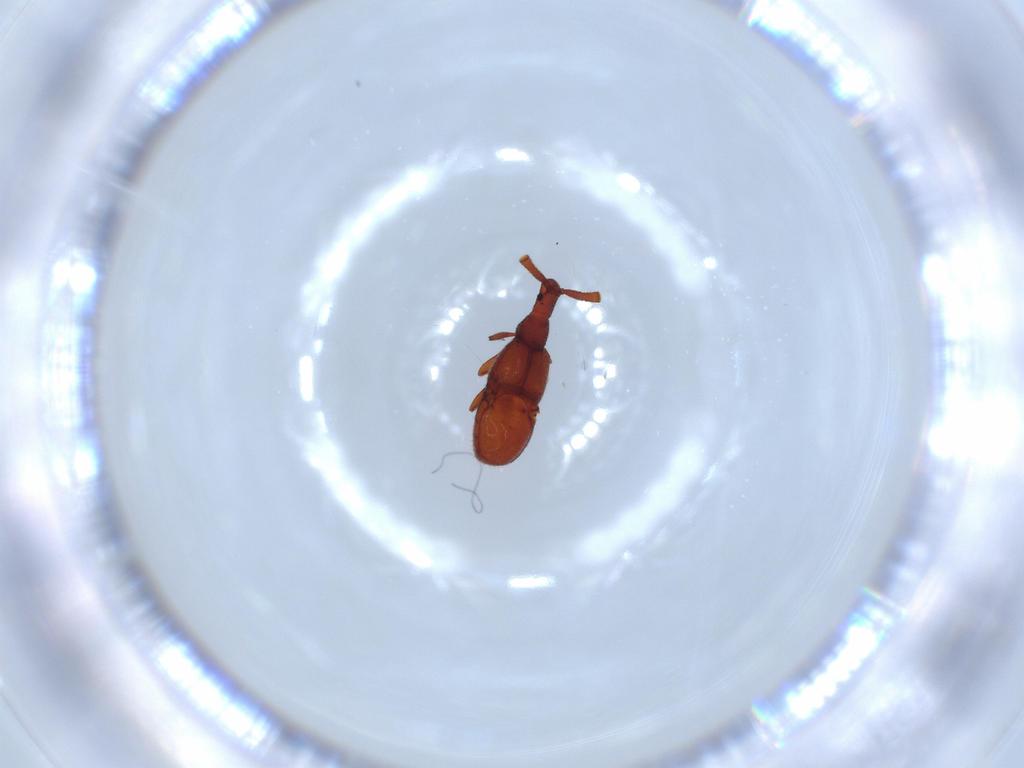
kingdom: Animalia
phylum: Arthropoda
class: Insecta
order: Coleoptera
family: Staphylinidae
